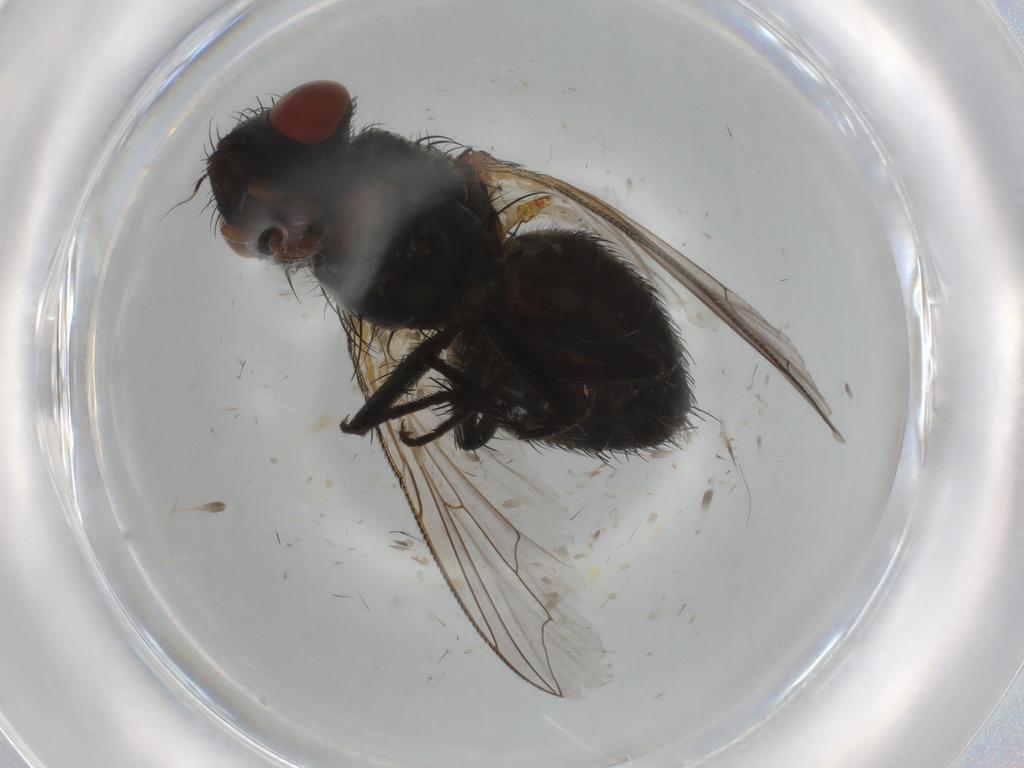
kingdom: Animalia
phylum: Arthropoda
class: Insecta
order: Diptera
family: Sarcophagidae
